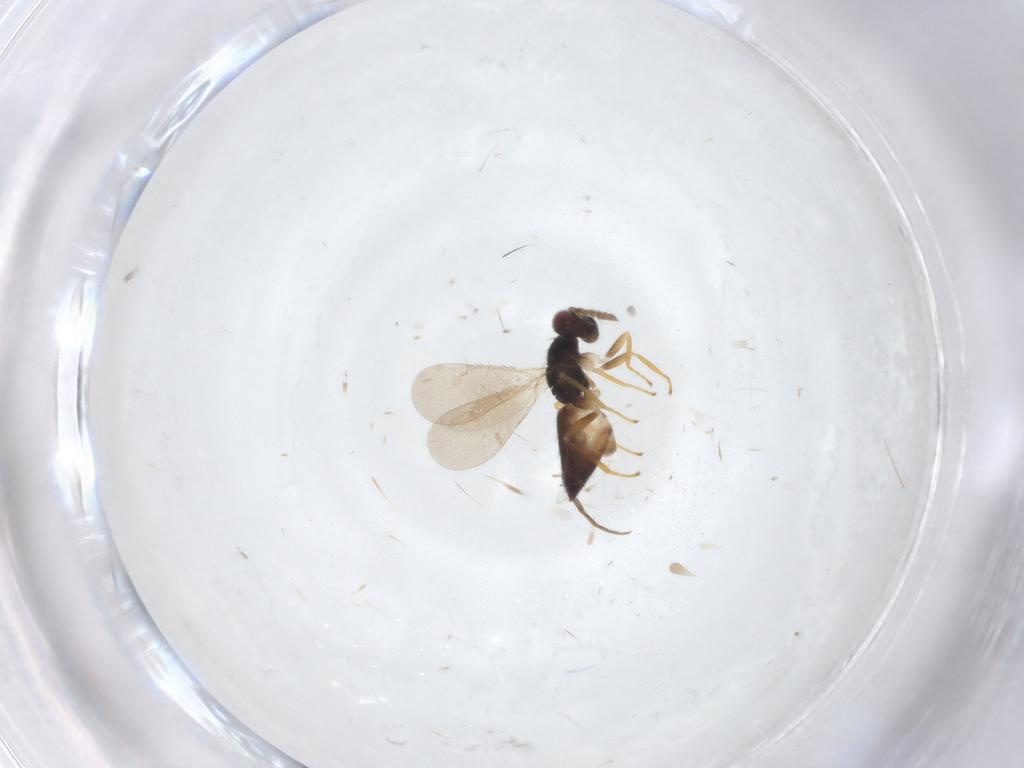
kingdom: Animalia
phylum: Arthropoda
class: Insecta
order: Hymenoptera
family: Eulophidae
